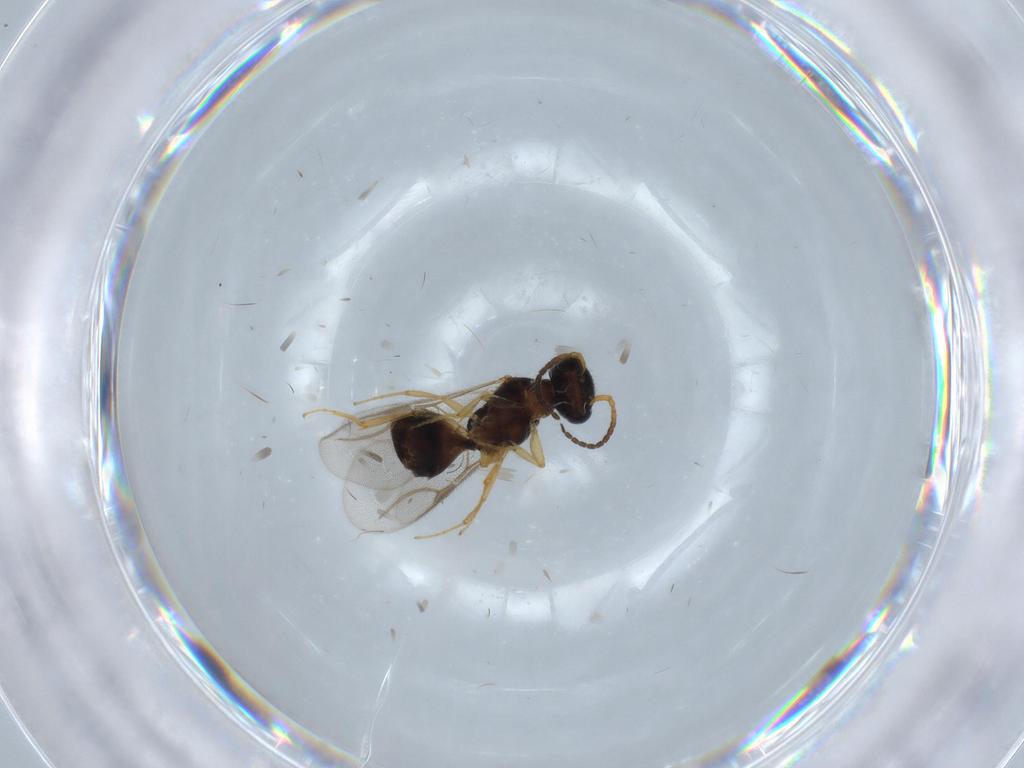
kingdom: Animalia
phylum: Arthropoda
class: Insecta
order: Hymenoptera
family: Bethylidae
